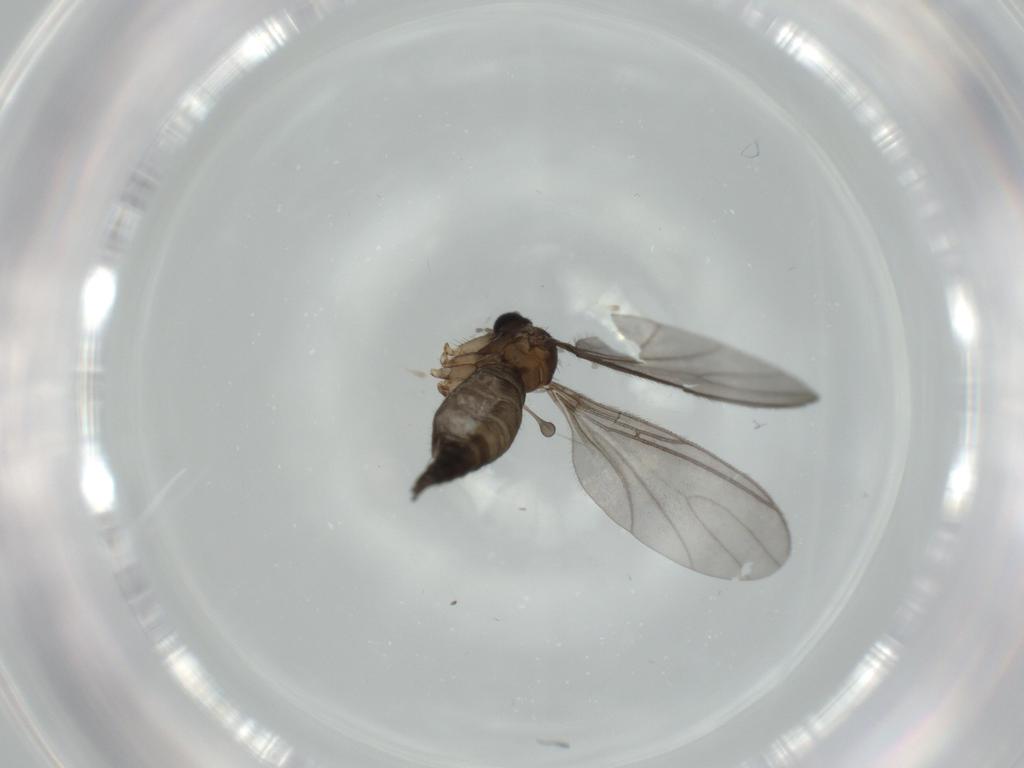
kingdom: Animalia
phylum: Arthropoda
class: Insecta
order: Diptera
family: Sciaridae
